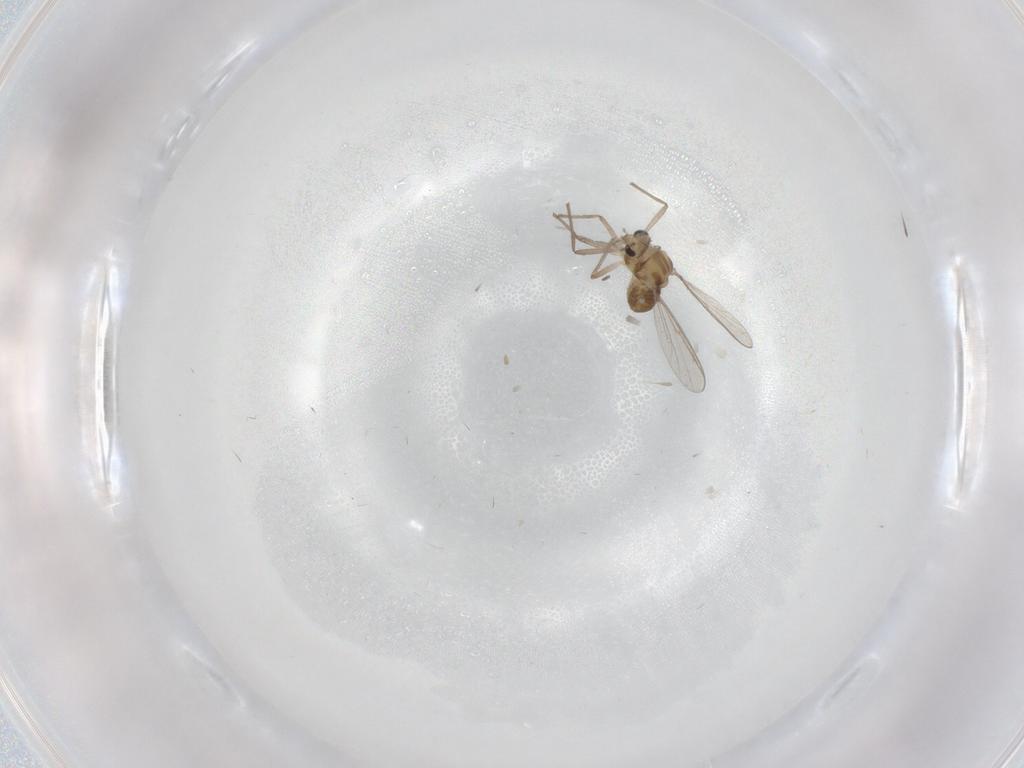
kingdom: Animalia
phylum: Arthropoda
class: Insecta
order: Diptera
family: Chironomidae
